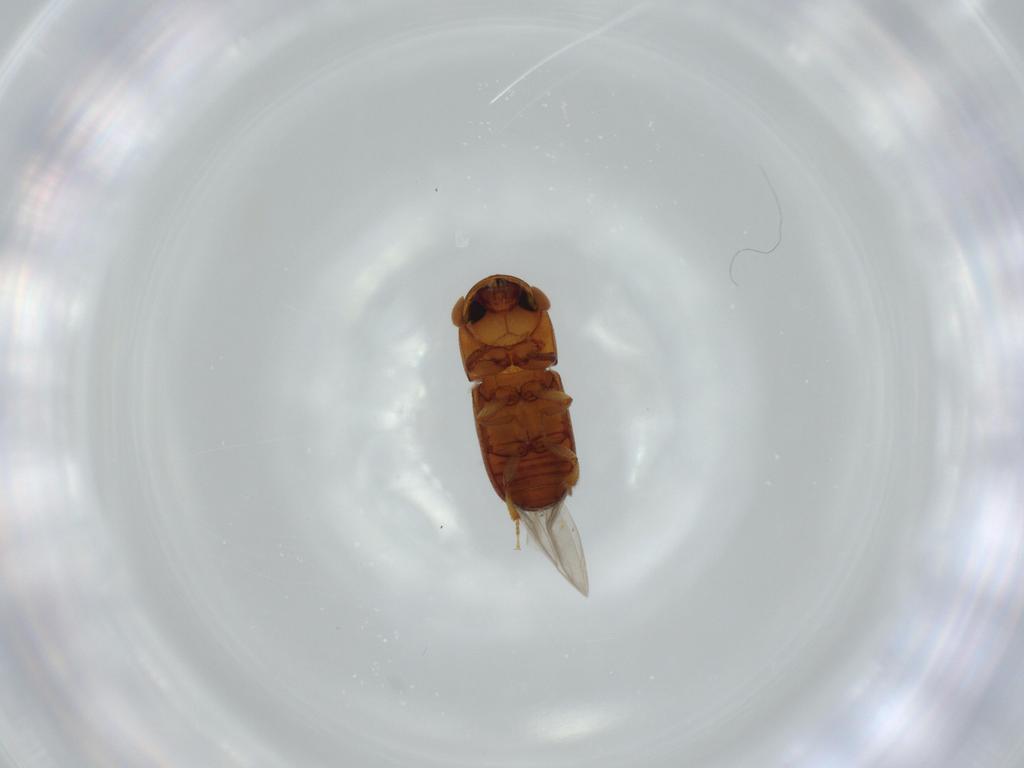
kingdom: Animalia
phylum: Arthropoda
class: Insecta
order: Coleoptera
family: Curculionidae
